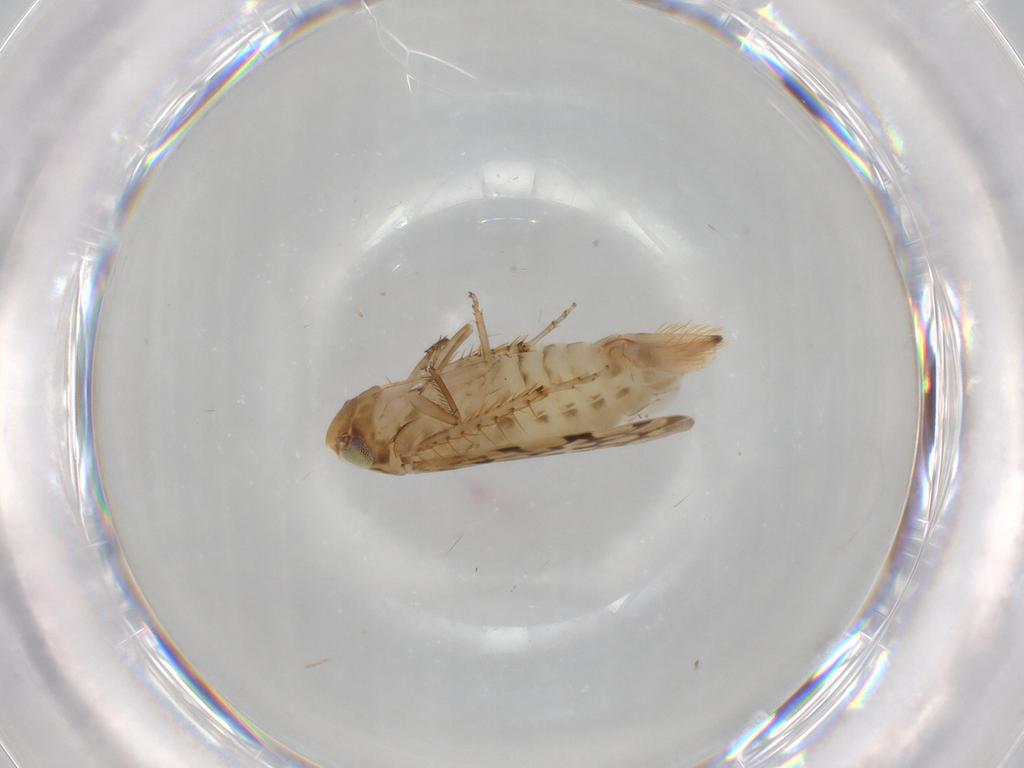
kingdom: Animalia
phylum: Arthropoda
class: Insecta
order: Hemiptera
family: Cicadellidae
